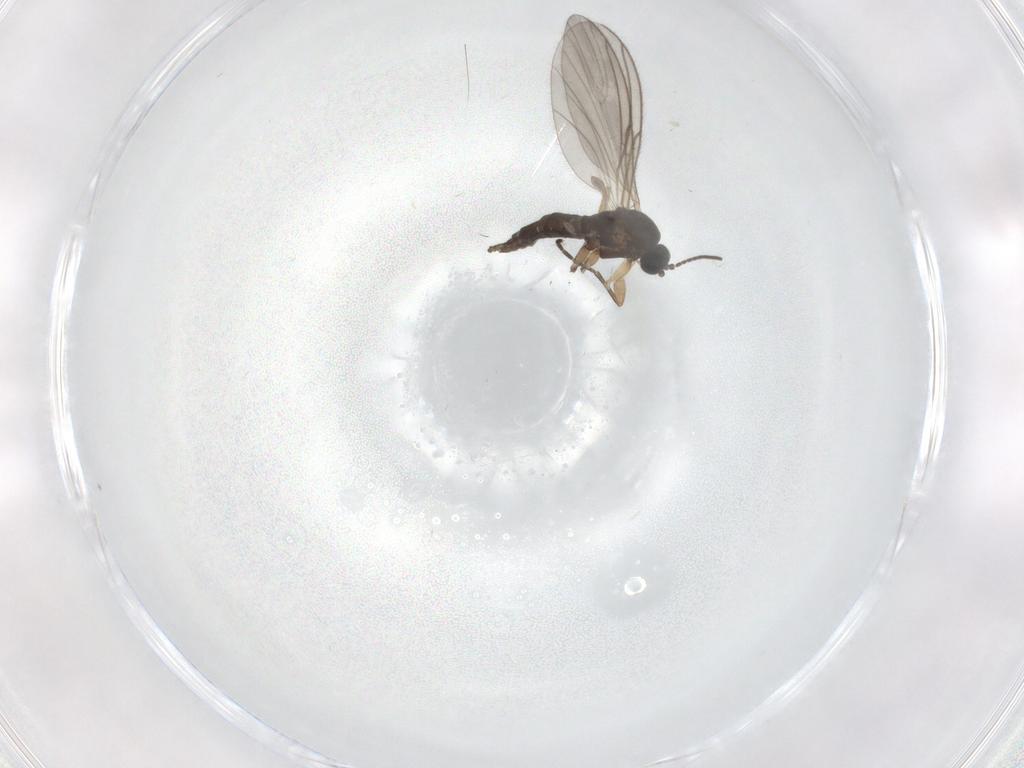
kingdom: Animalia
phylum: Arthropoda
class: Insecta
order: Diptera
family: Sciaridae
